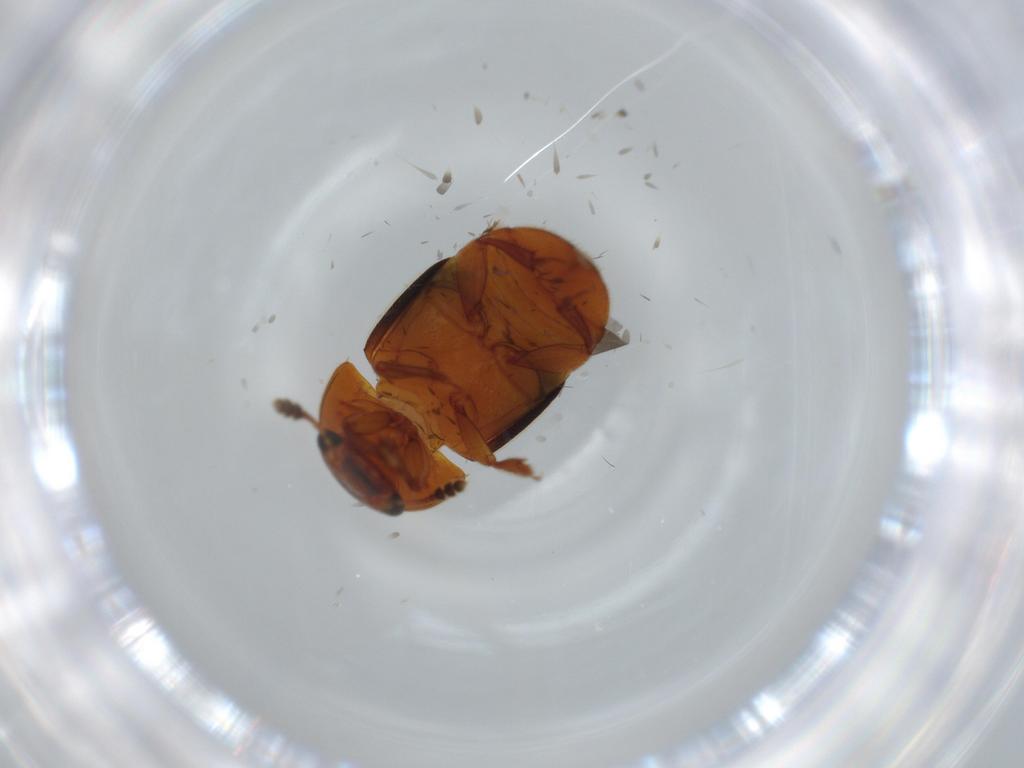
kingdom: Animalia
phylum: Arthropoda
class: Insecta
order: Coleoptera
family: Nitidulidae
